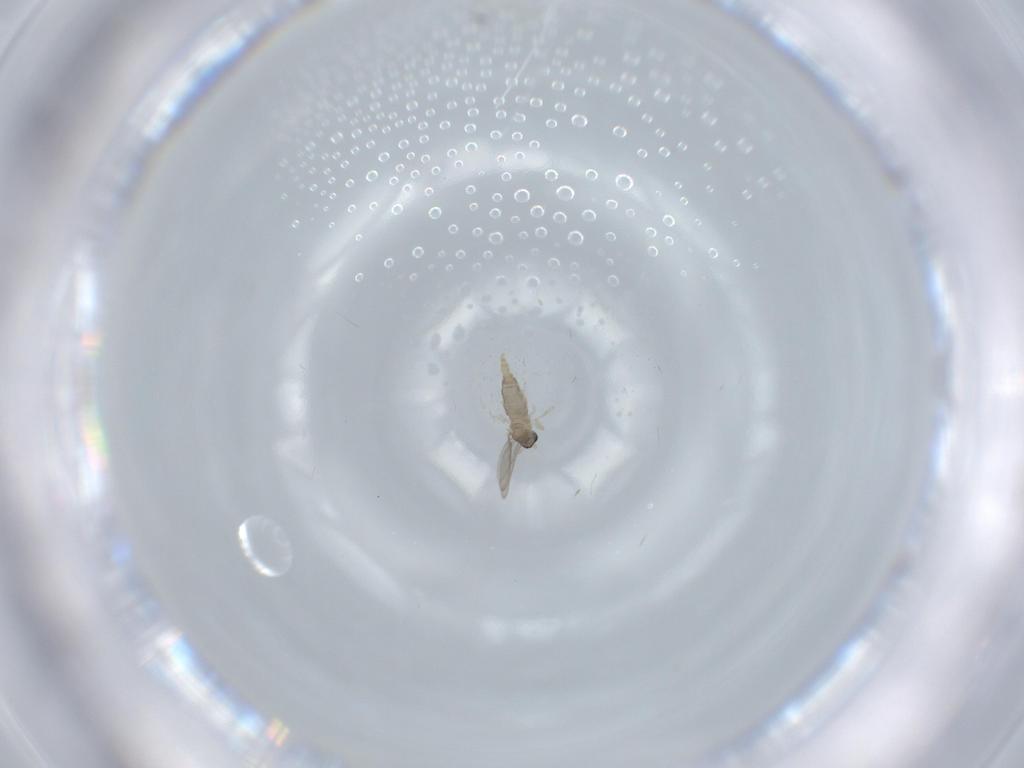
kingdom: Animalia
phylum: Arthropoda
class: Insecta
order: Diptera
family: Cecidomyiidae
